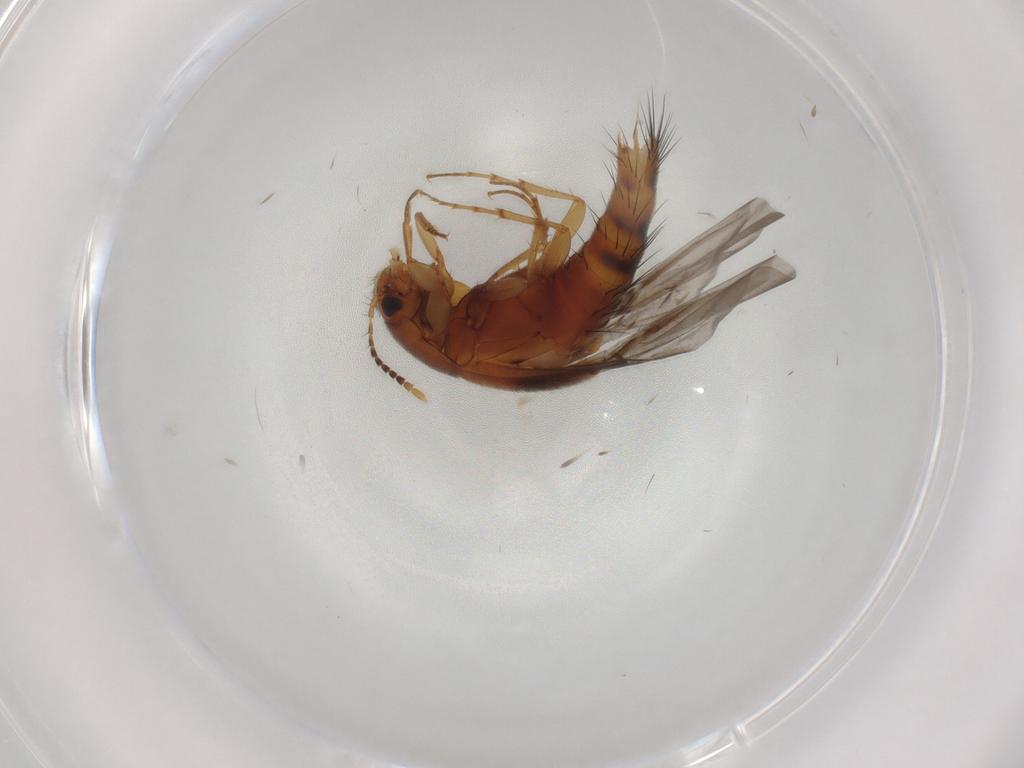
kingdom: Animalia
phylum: Arthropoda
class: Insecta
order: Coleoptera
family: Staphylinidae
